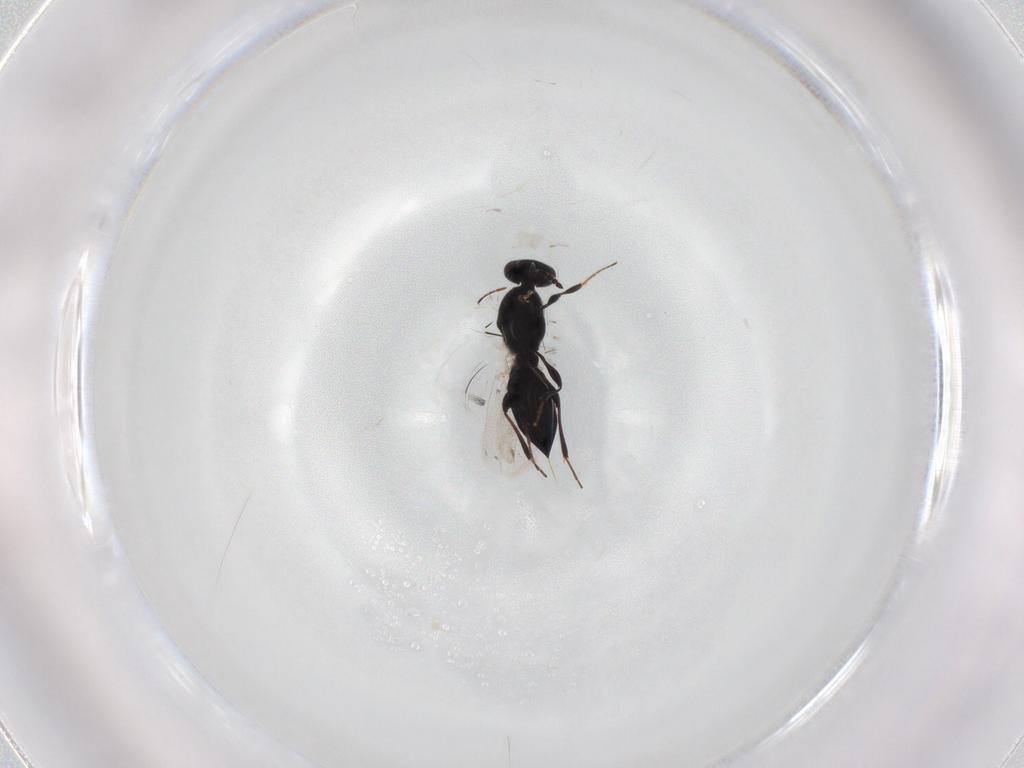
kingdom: Animalia
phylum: Arthropoda
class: Insecta
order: Hymenoptera
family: Platygastridae
